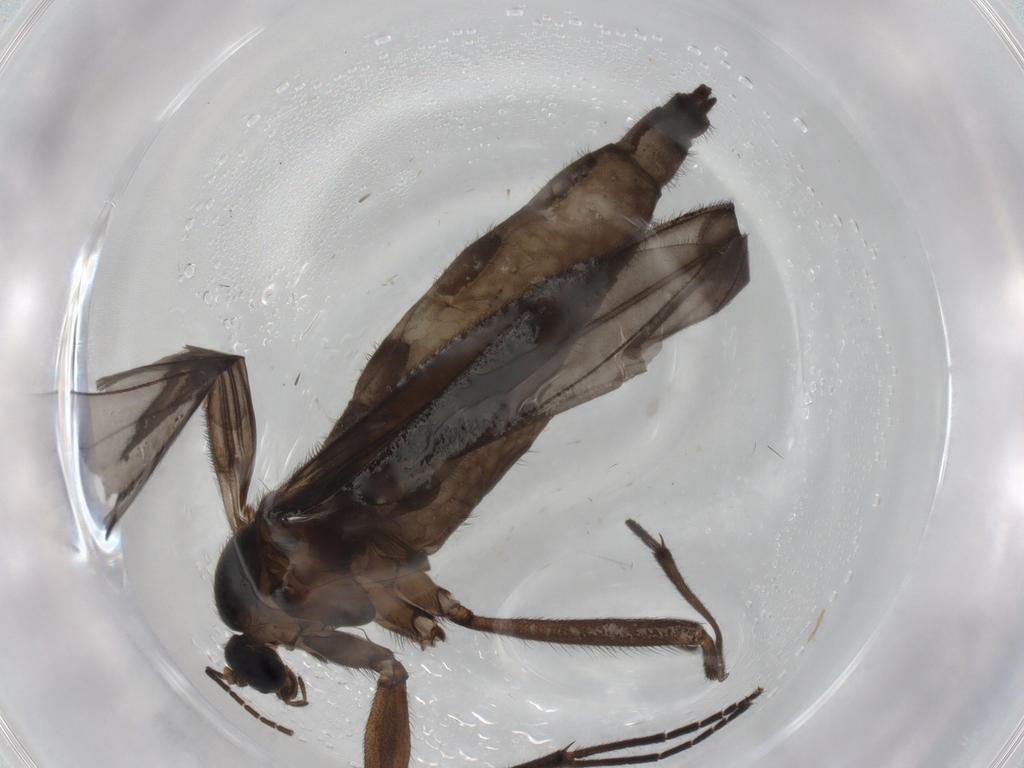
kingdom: Animalia
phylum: Arthropoda
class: Insecta
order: Diptera
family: Sciaridae
